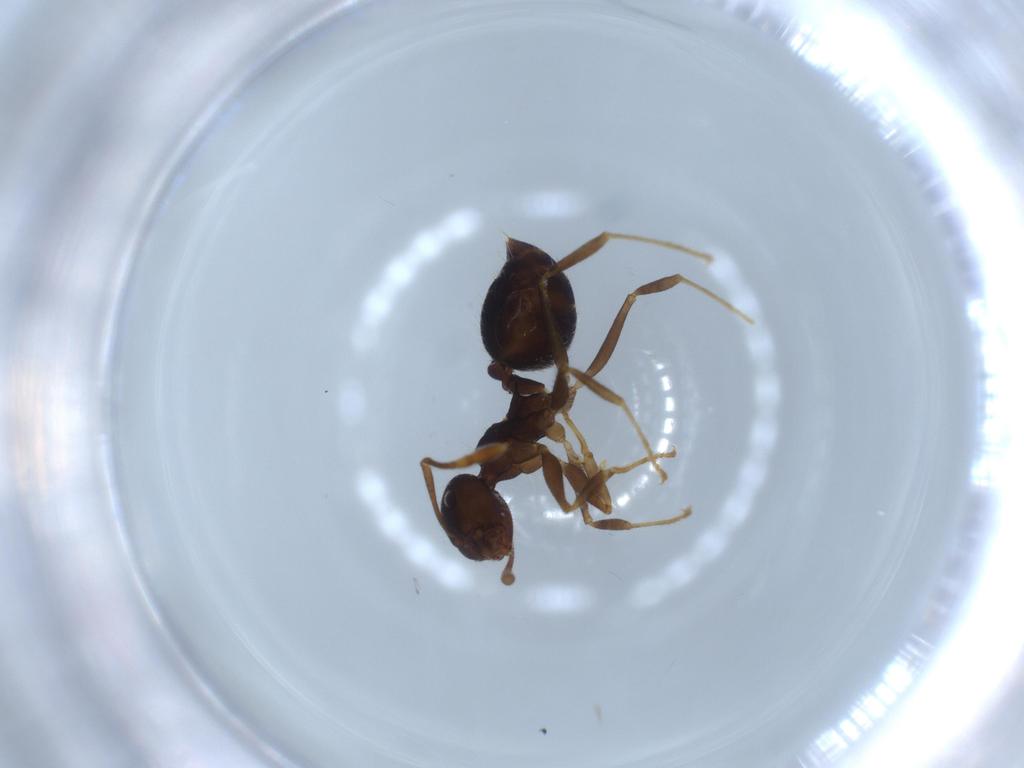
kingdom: Animalia
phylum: Arthropoda
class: Insecta
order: Hymenoptera
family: Formicidae
